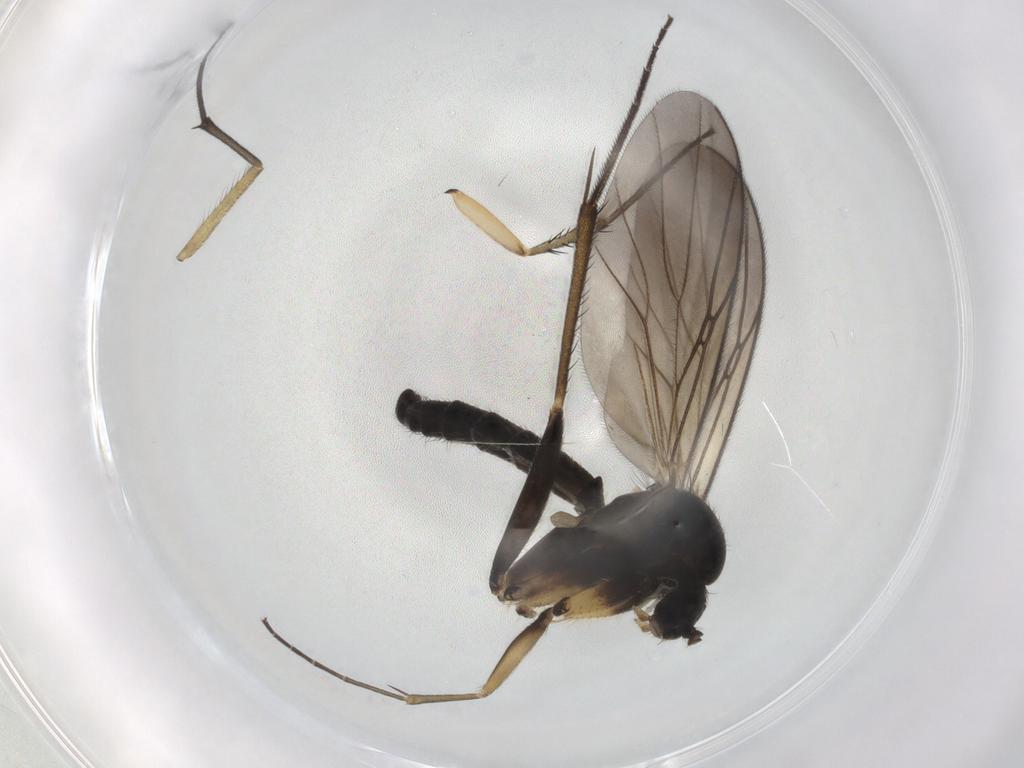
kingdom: Animalia
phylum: Arthropoda
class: Insecta
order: Diptera
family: Mycetophilidae
